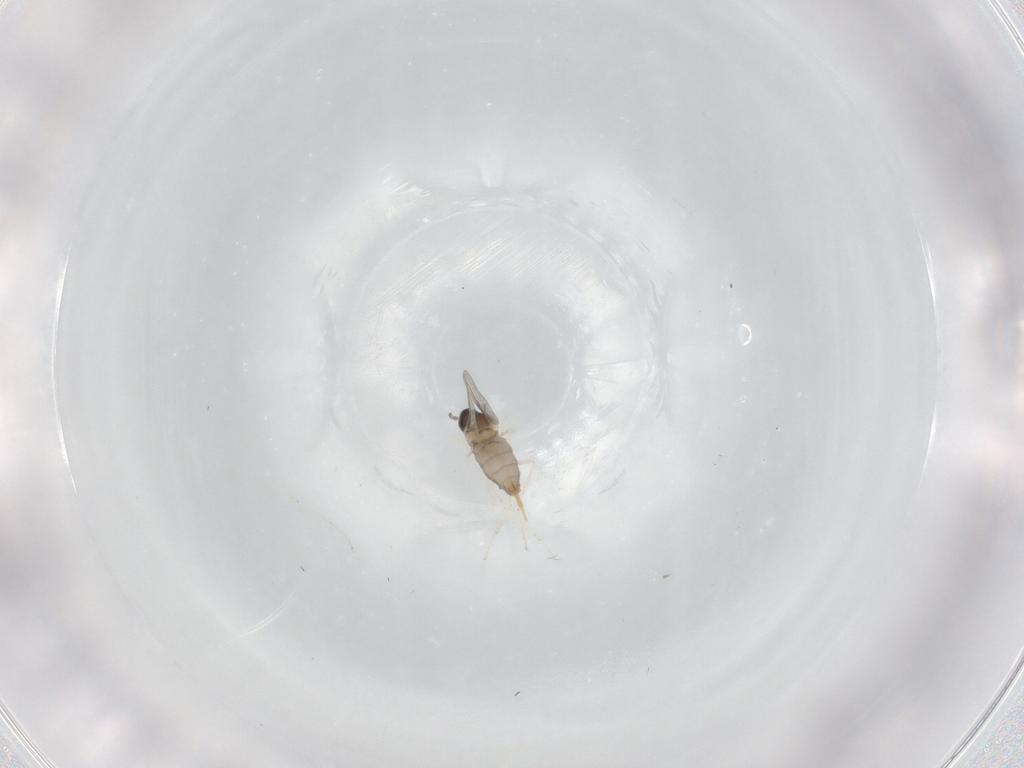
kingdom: Animalia
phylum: Arthropoda
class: Insecta
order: Diptera
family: Cecidomyiidae
